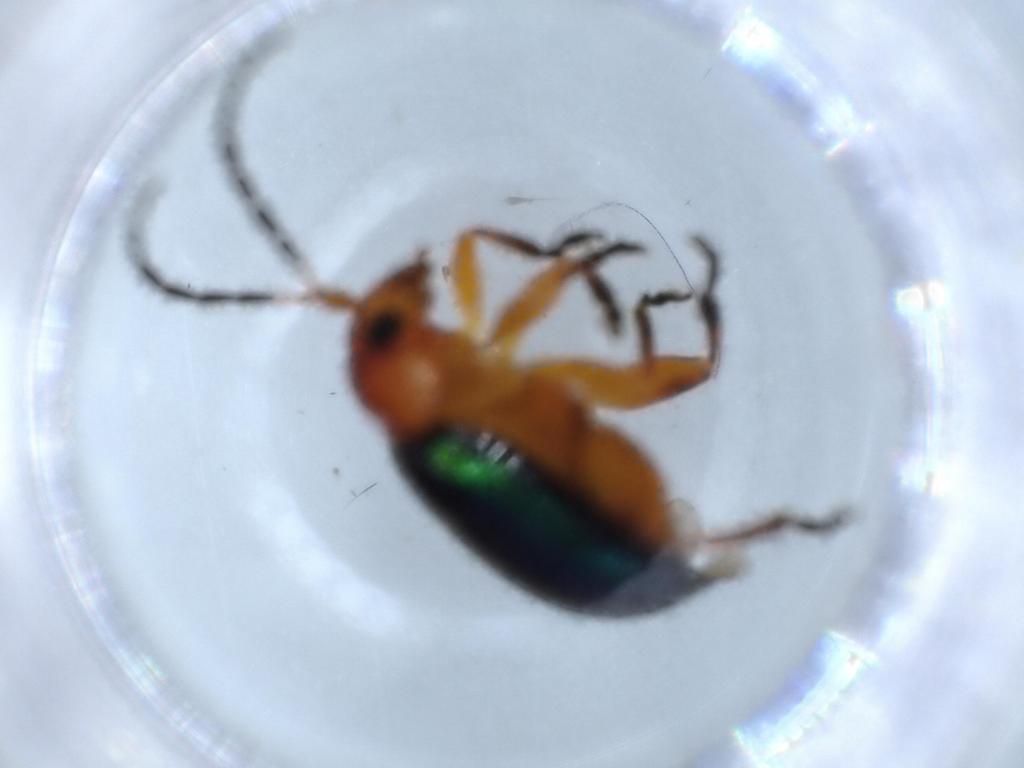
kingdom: Animalia
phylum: Arthropoda
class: Insecta
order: Coleoptera
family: Chrysomelidae
